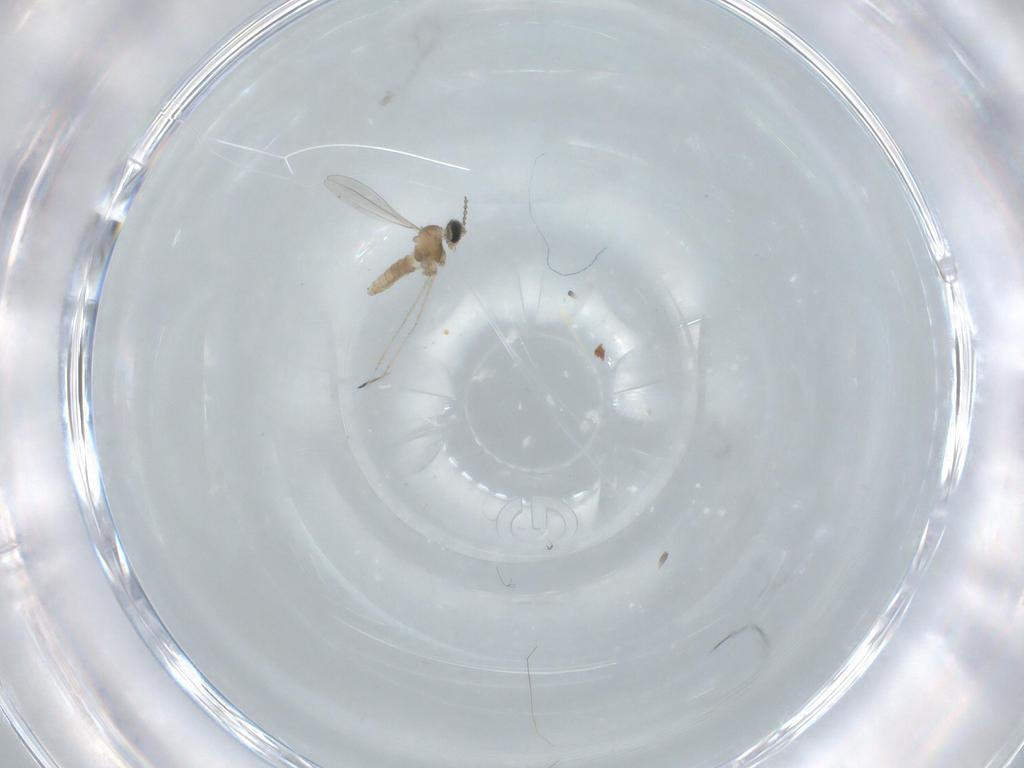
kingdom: Animalia
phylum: Arthropoda
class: Insecta
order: Diptera
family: Cecidomyiidae
